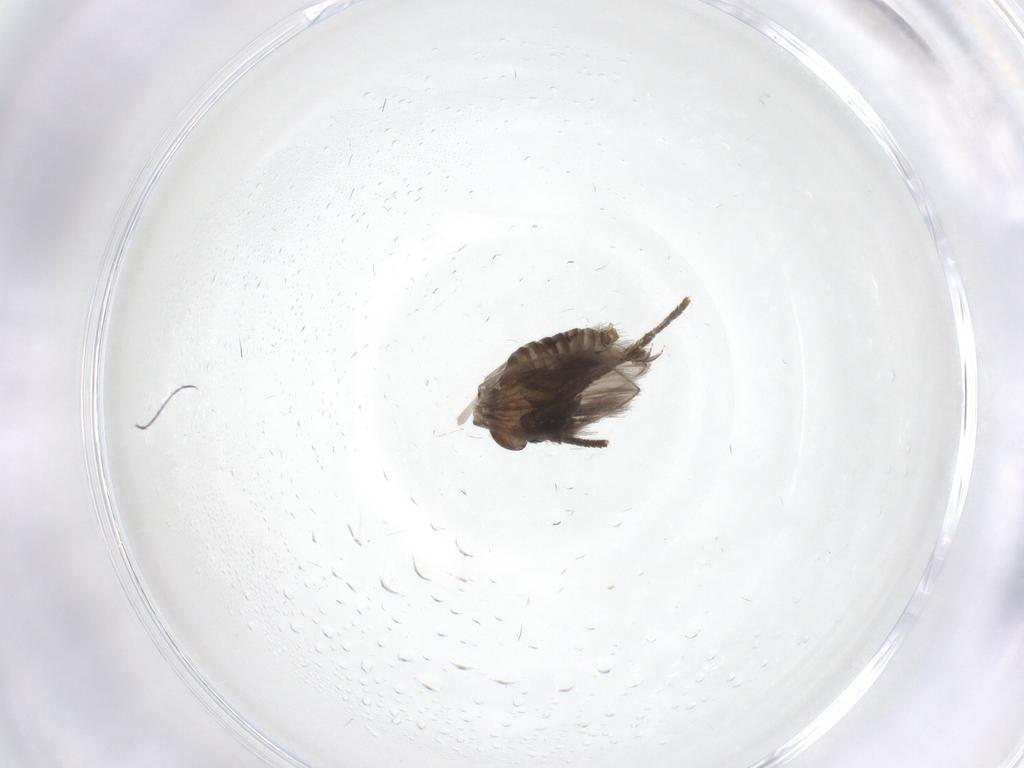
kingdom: Animalia
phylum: Arthropoda
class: Insecta
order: Diptera
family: Psychodidae
